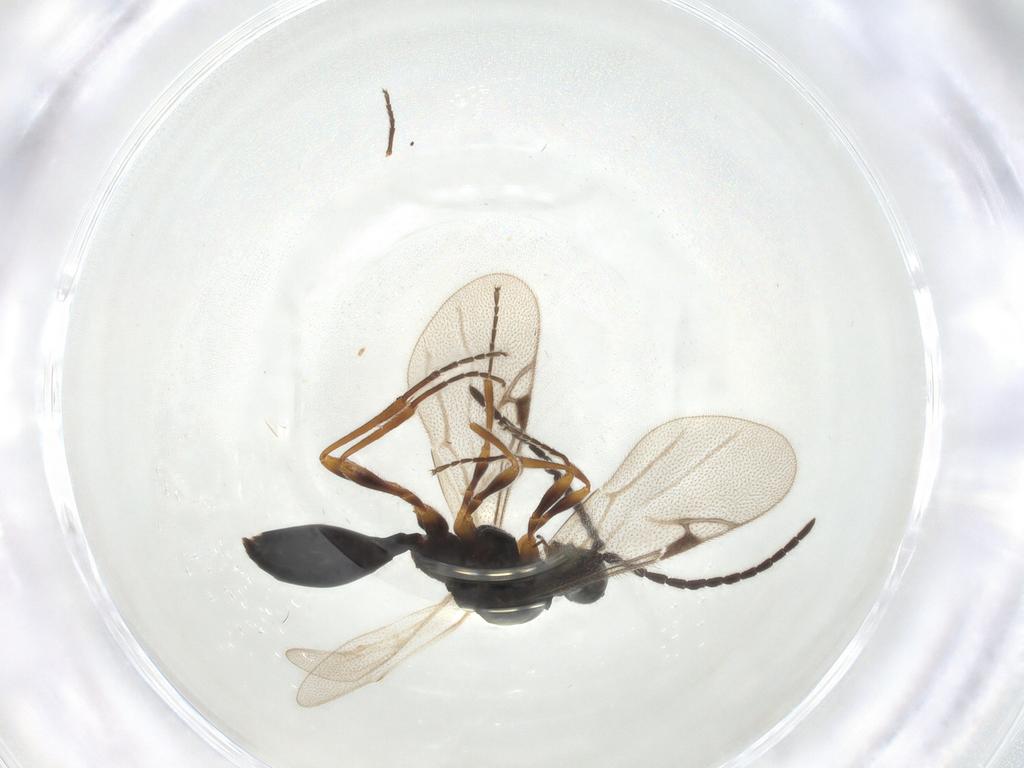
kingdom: Animalia
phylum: Arthropoda
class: Insecta
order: Hymenoptera
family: Proctotrupidae
